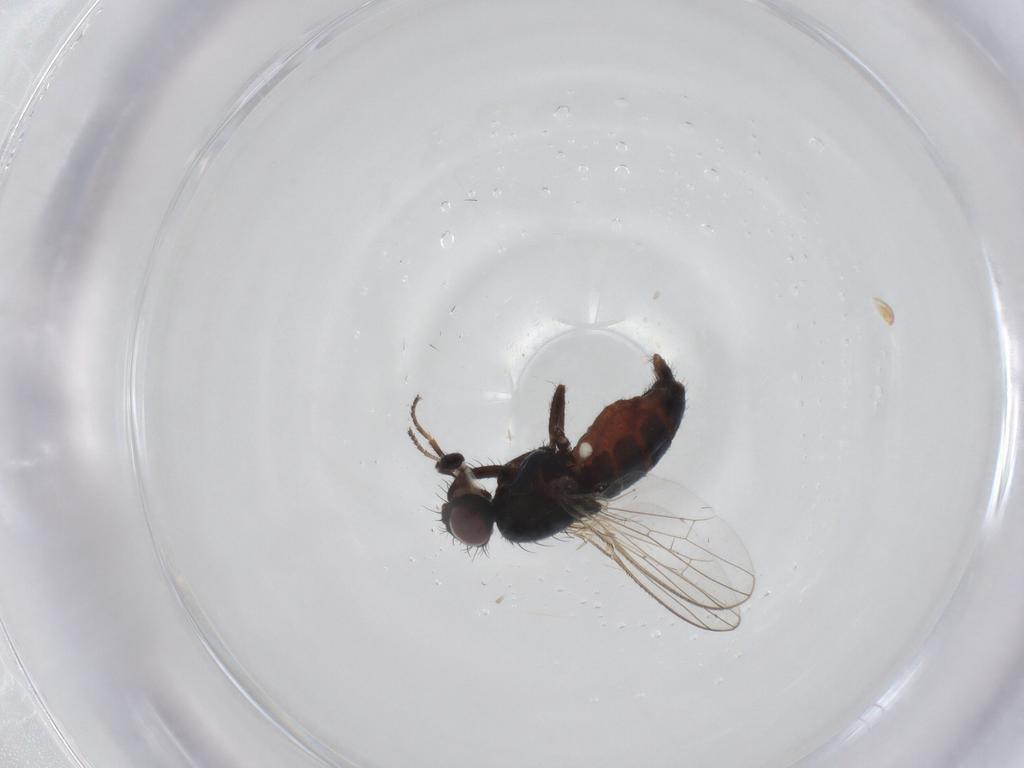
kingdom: Animalia
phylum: Arthropoda
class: Insecta
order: Diptera
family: Carnidae
